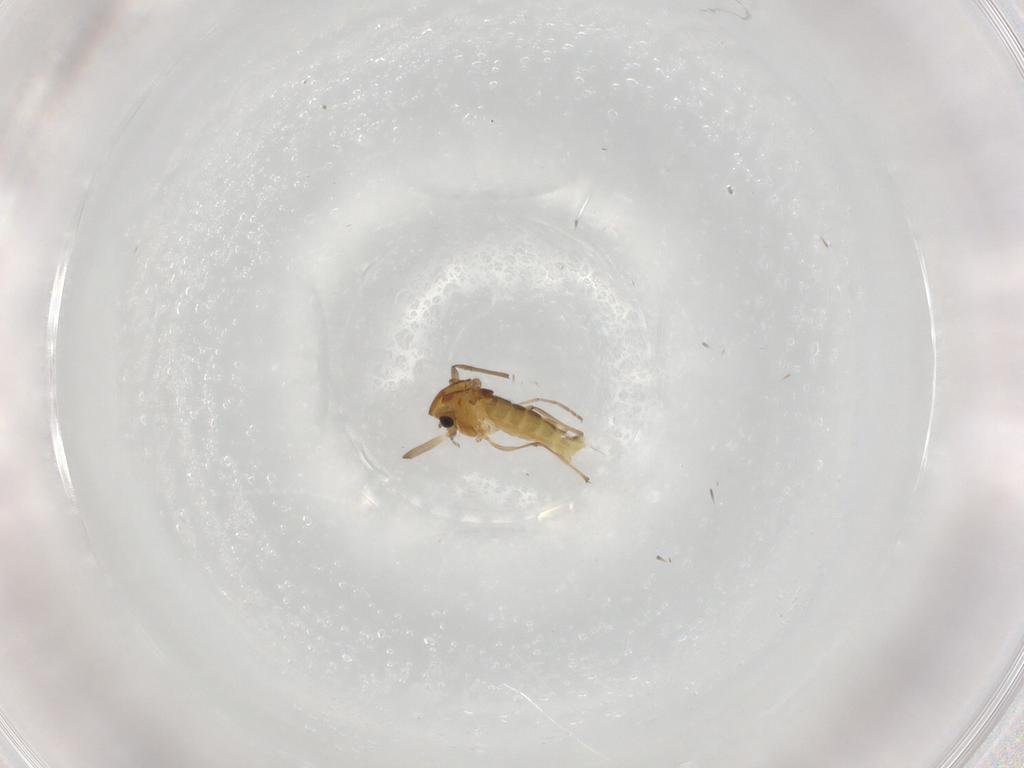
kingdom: Animalia
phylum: Arthropoda
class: Insecta
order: Diptera
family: Chironomidae
